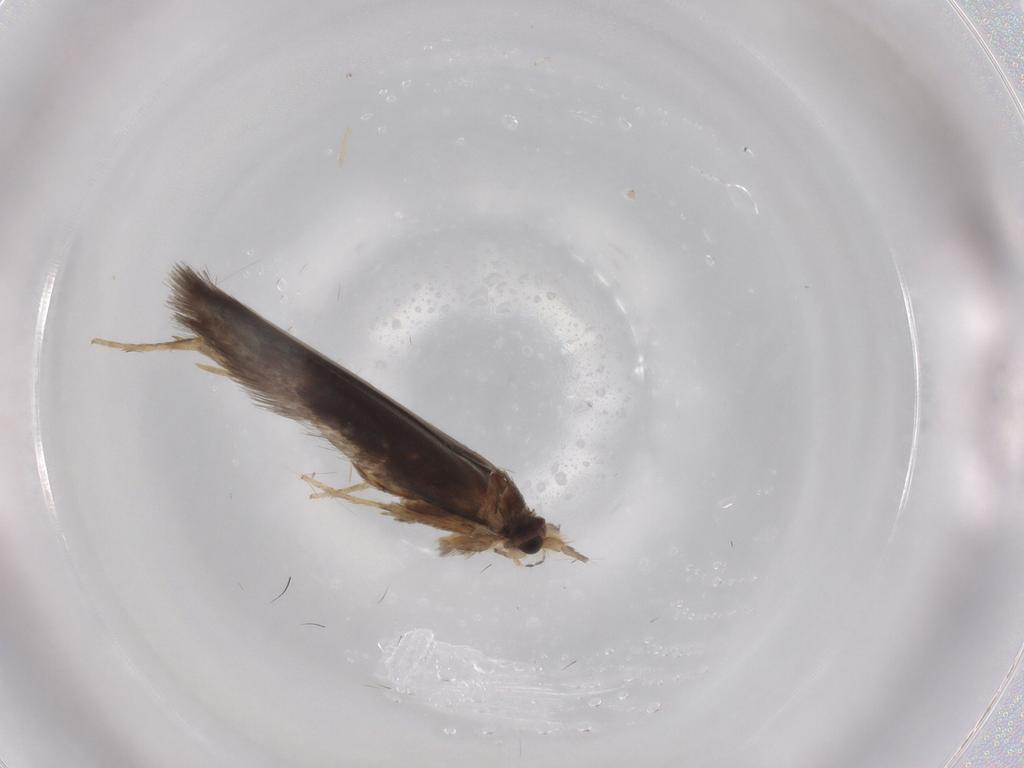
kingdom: Animalia
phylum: Arthropoda
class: Insecta
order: Lepidoptera
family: Nepticulidae
